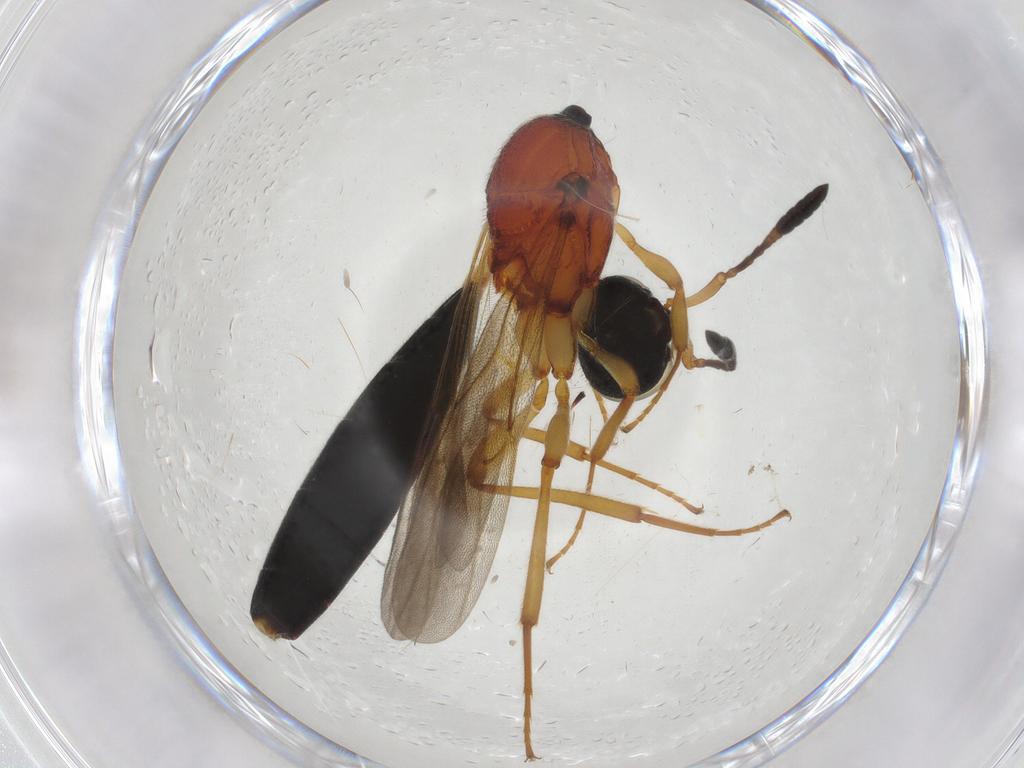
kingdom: Animalia
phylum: Arthropoda
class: Insecta
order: Hymenoptera
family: Scelionidae
